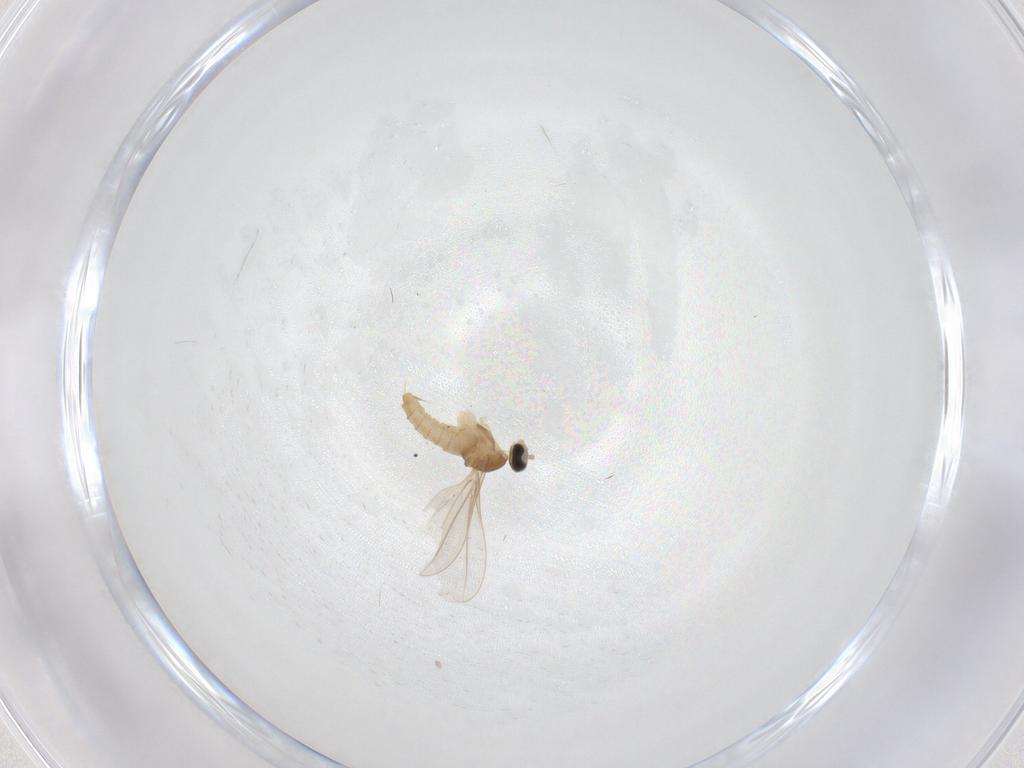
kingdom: Animalia
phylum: Arthropoda
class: Insecta
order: Diptera
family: Cecidomyiidae
